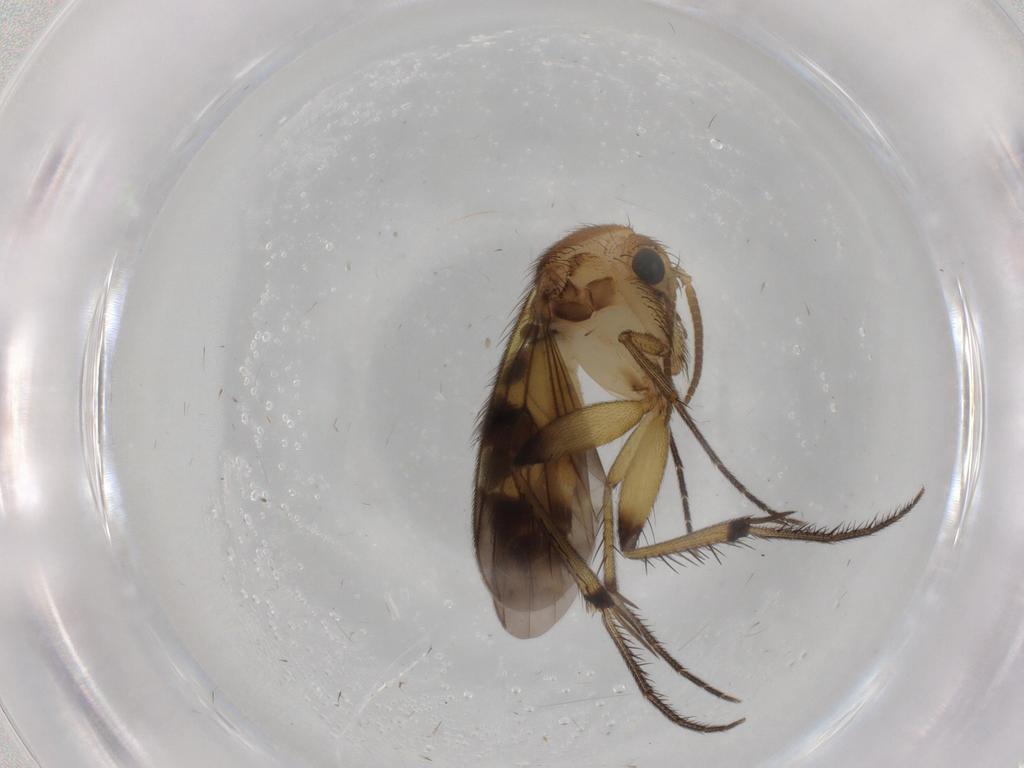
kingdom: Animalia
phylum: Arthropoda
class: Insecta
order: Diptera
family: Mycetophilidae
